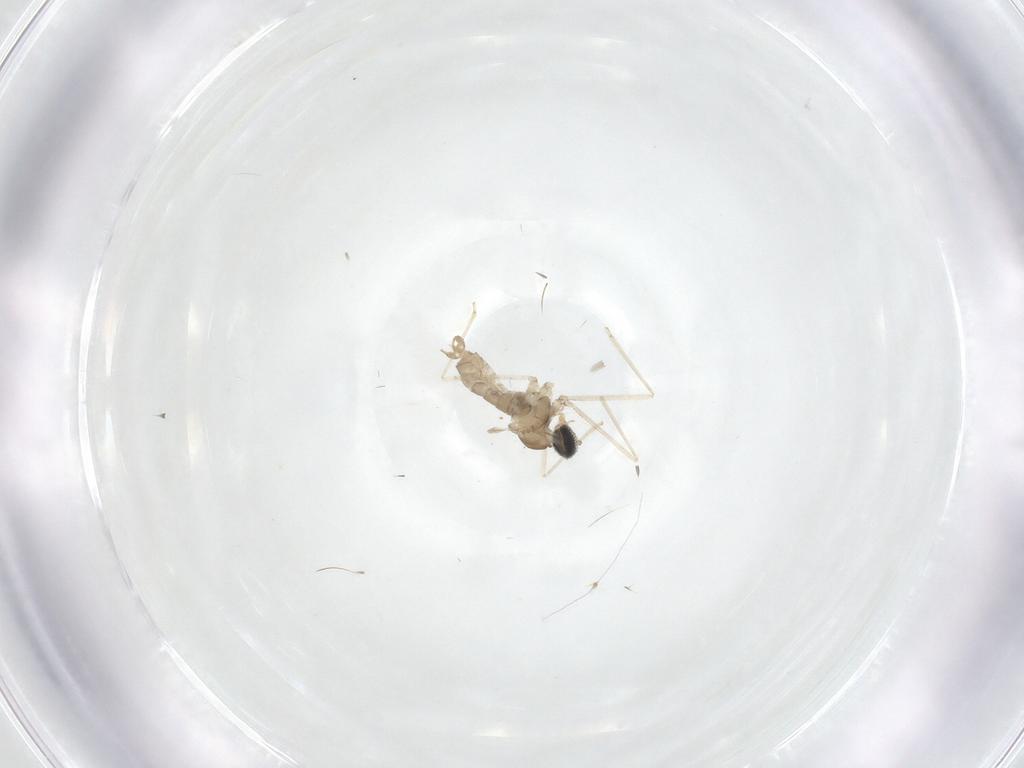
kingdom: Animalia
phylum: Arthropoda
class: Insecta
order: Diptera
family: Cecidomyiidae
